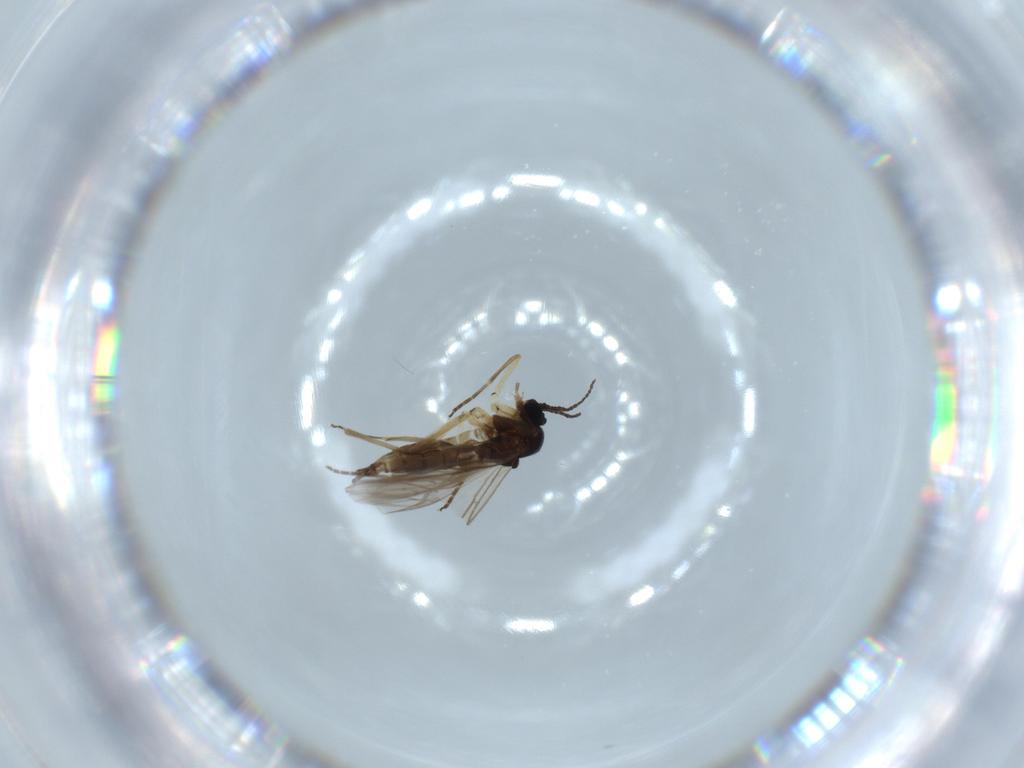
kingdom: Animalia
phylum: Arthropoda
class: Insecta
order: Diptera
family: Sciaridae
